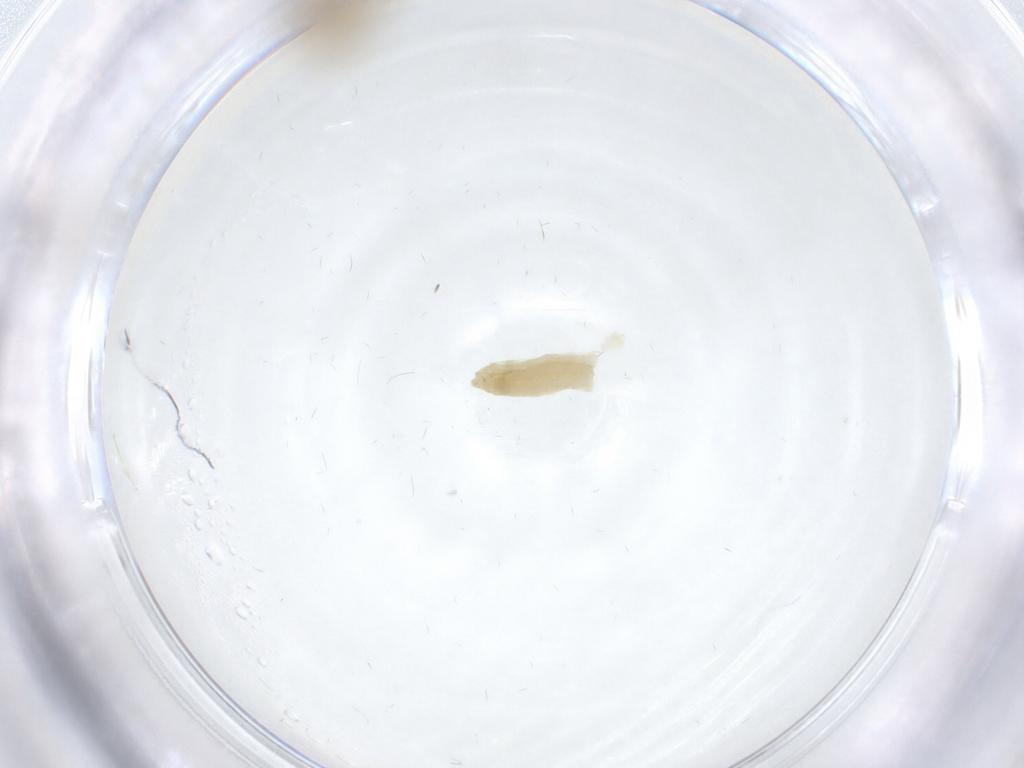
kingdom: Animalia
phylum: Arthropoda
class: Insecta
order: Diptera
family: Chironomidae
